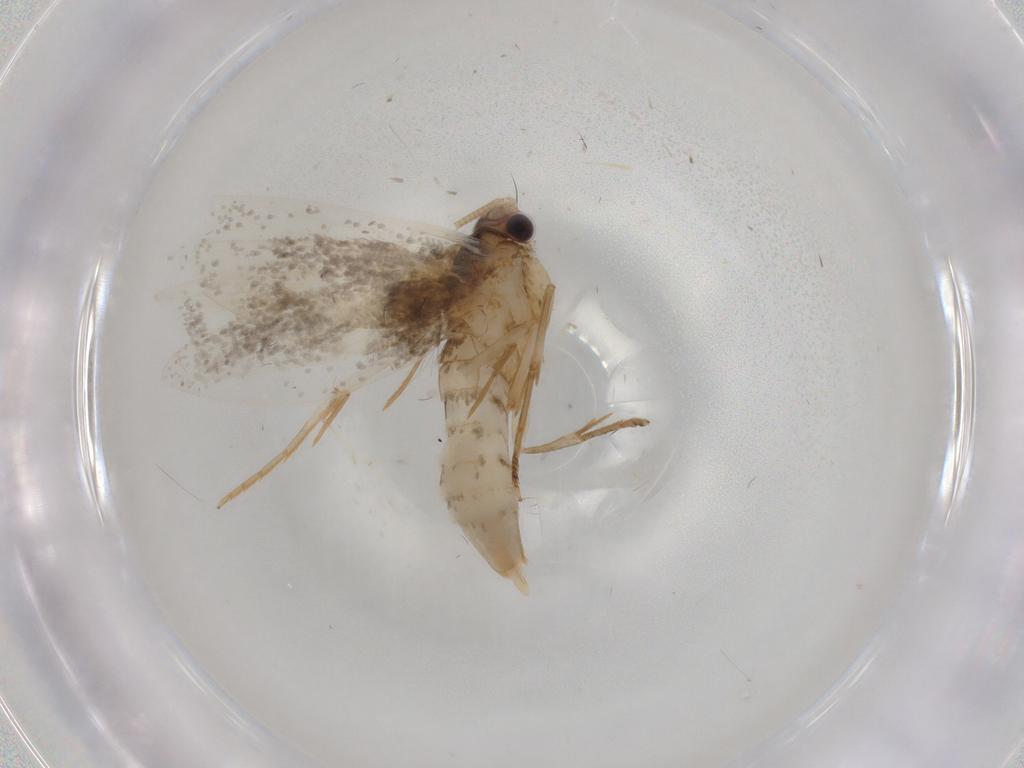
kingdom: Animalia
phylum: Arthropoda
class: Insecta
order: Lepidoptera
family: Tineidae
